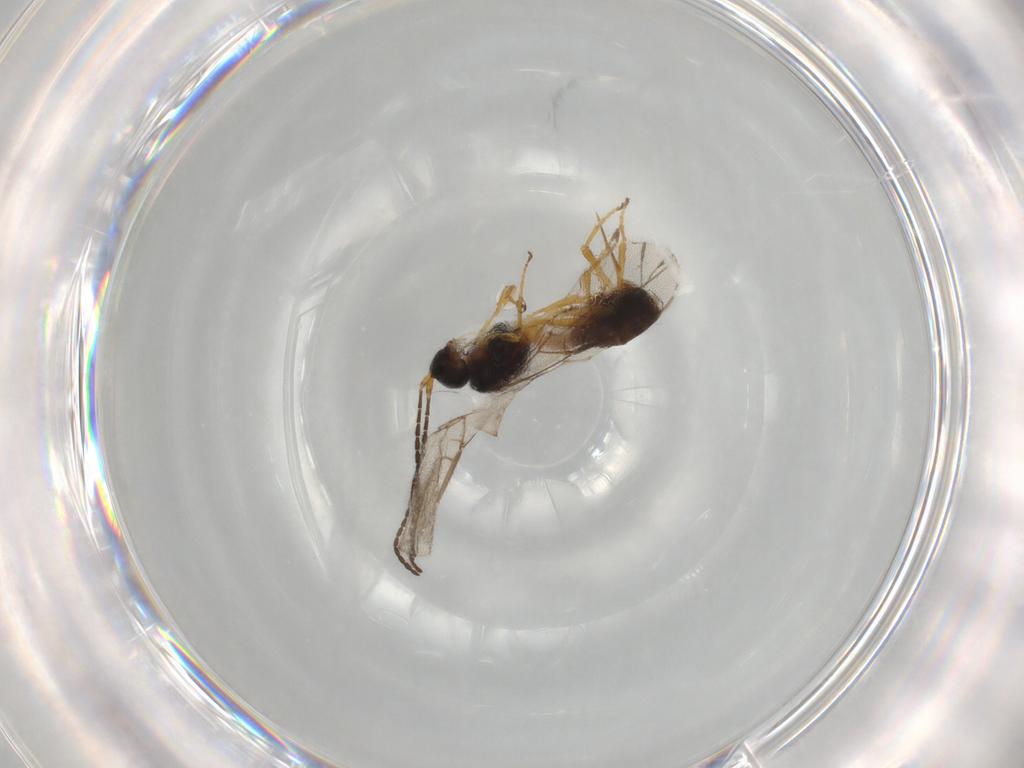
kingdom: Animalia
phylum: Arthropoda
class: Insecta
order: Hymenoptera
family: Braconidae
